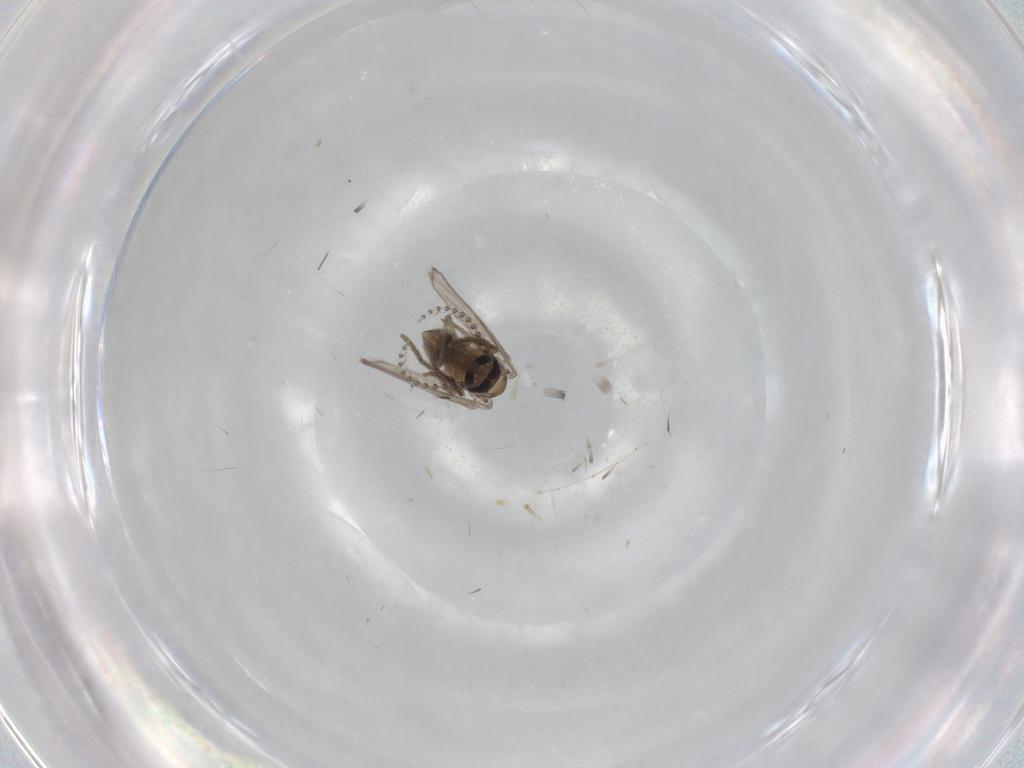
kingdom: Animalia
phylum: Arthropoda
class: Insecta
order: Diptera
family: Psychodidae
